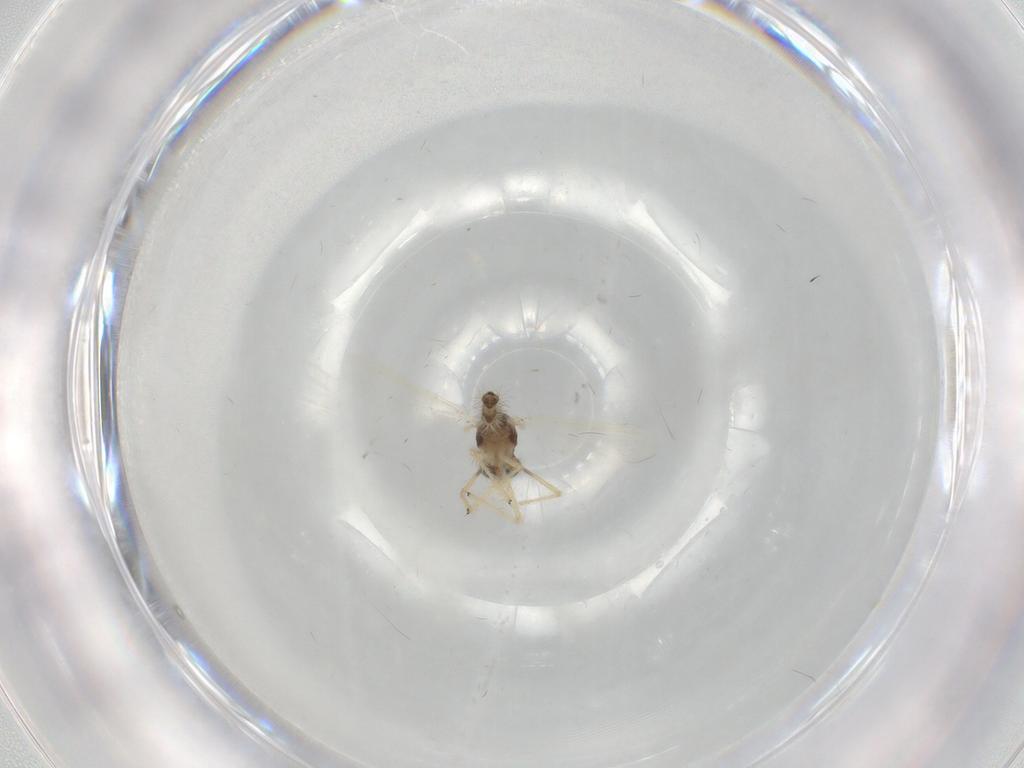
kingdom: Animalia
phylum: Arthropoda
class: Insecta
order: Diptera
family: Chironomidae
